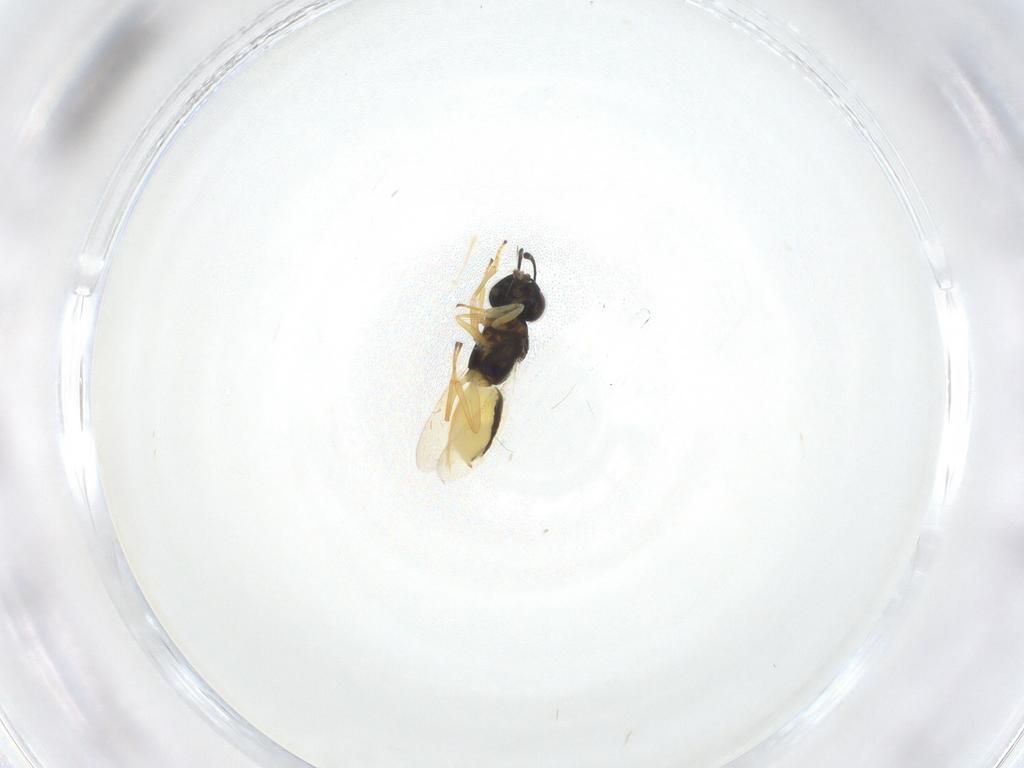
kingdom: Animalia
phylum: Arthropoda
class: Insecta
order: Hymenoptera
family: Encyrtidae
